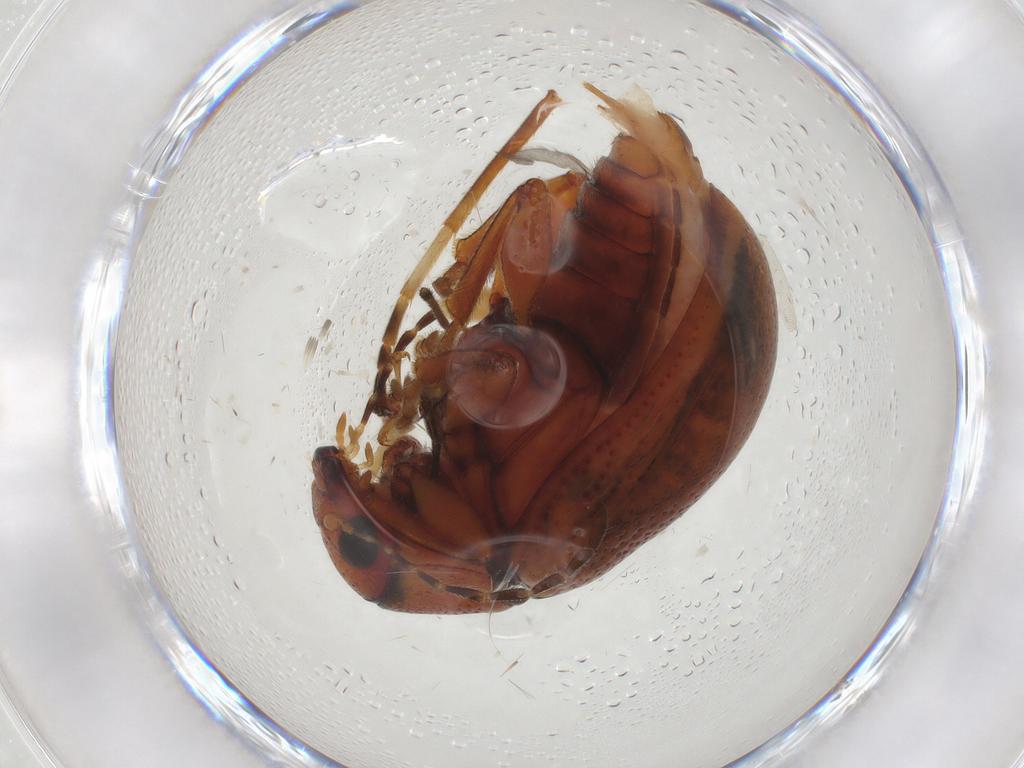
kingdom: Animalia
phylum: Arthropoda
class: Insecta
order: Coleoptera
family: Chrysomelidae
